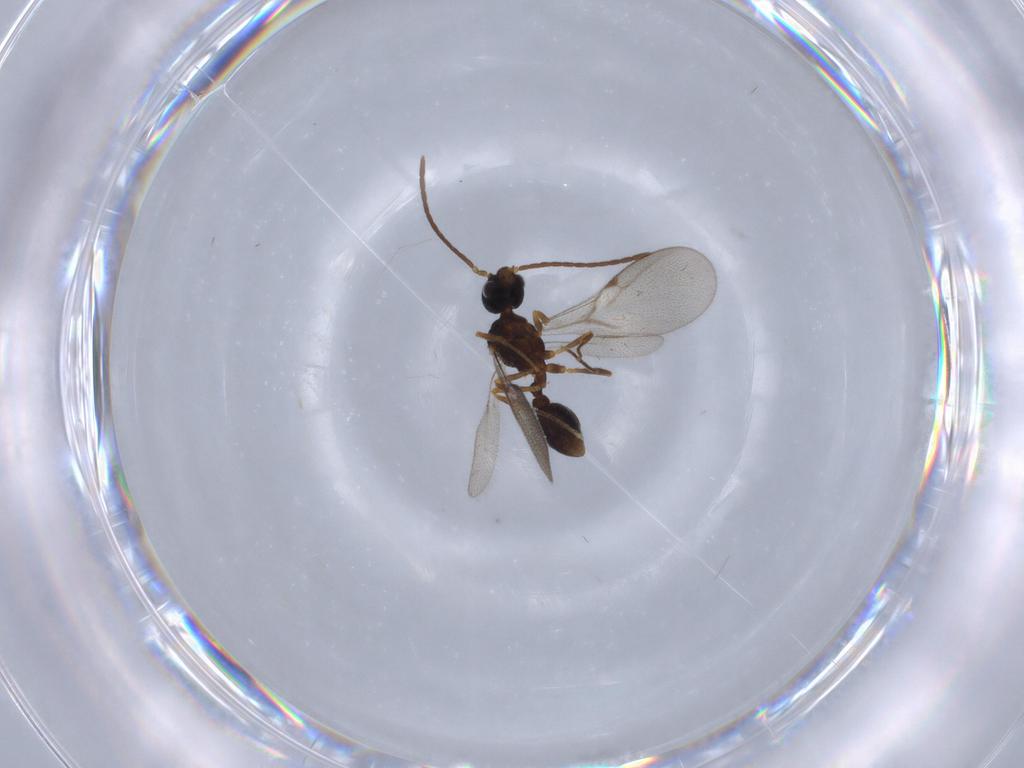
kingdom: Animalia
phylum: Arthropoda
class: Insecta
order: Hymenoptera
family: Formicidae
